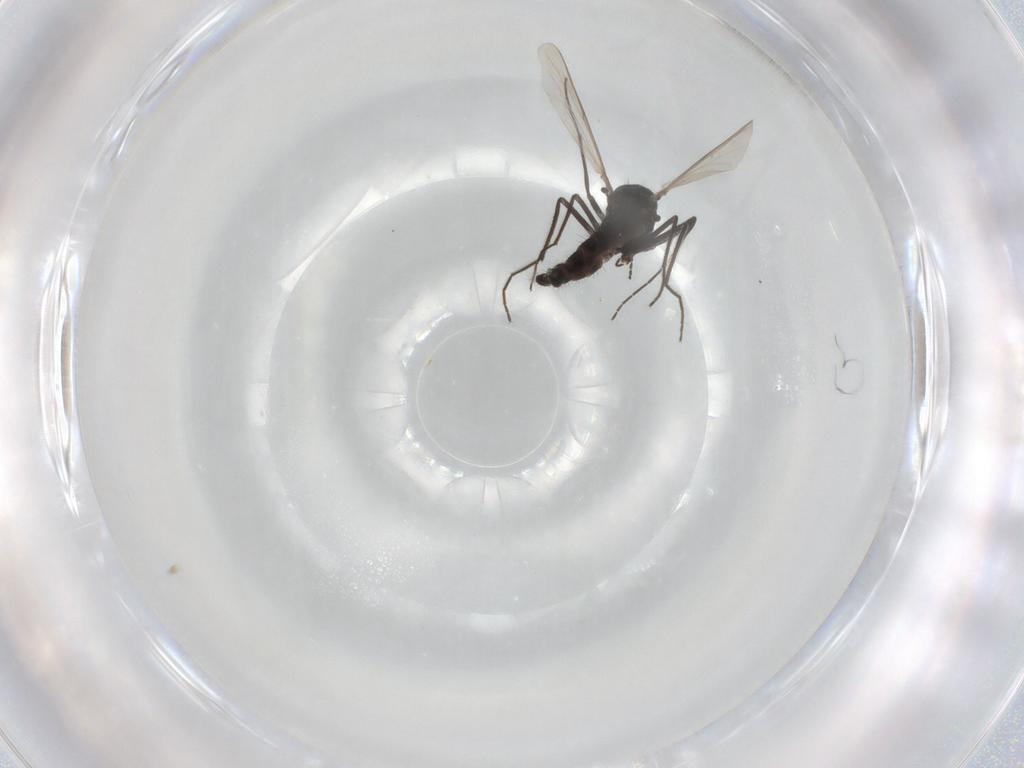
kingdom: Animalia
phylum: Arthropoda
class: Insecta
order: Diptera
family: Chironomidae
